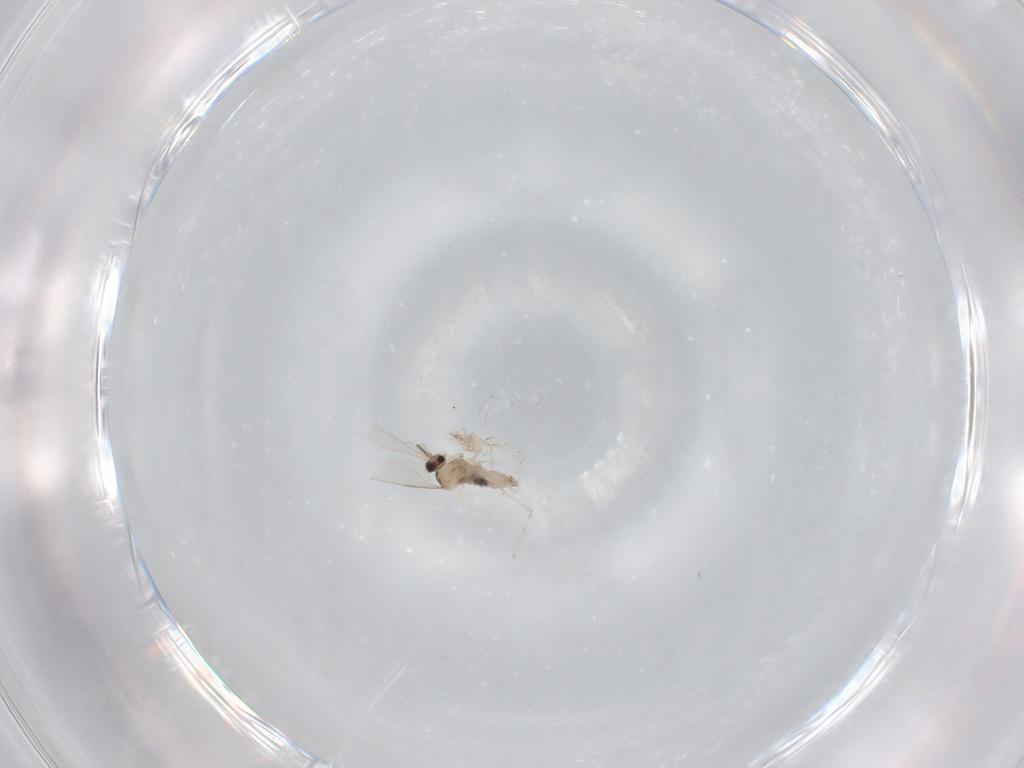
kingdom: Animalia
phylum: Arthropoda
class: Insecta
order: Diptera
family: Cecidomyiidae
